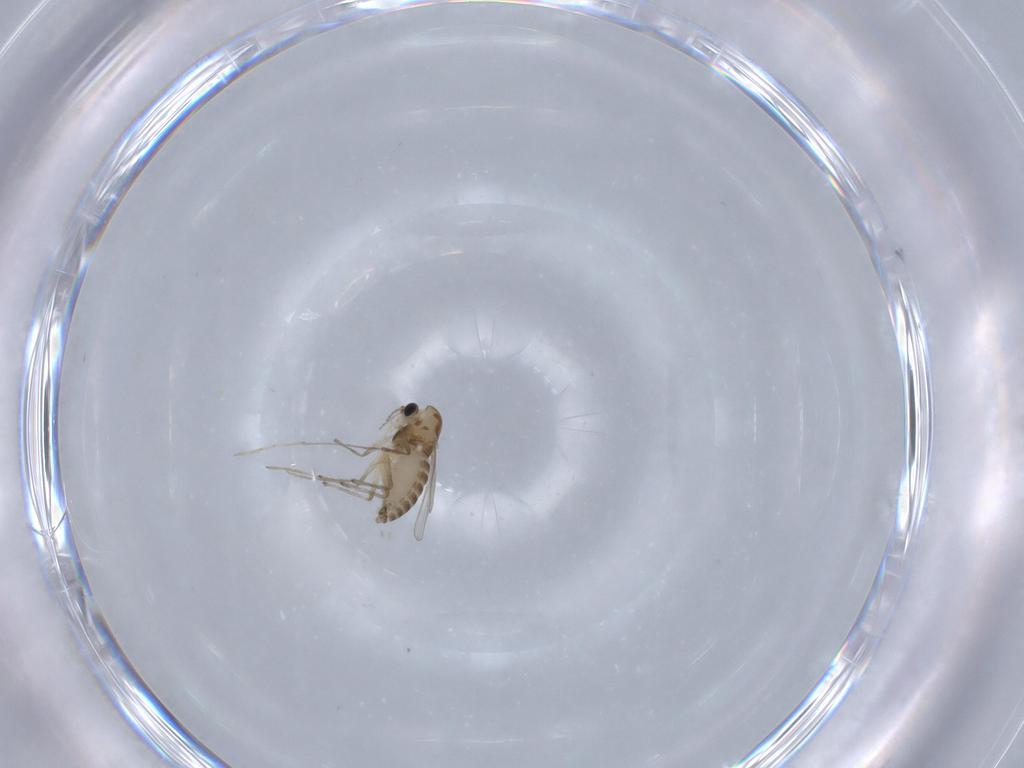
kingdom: Animalia
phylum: Arthropoda
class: Insecta
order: Diptera
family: Chironomidae
